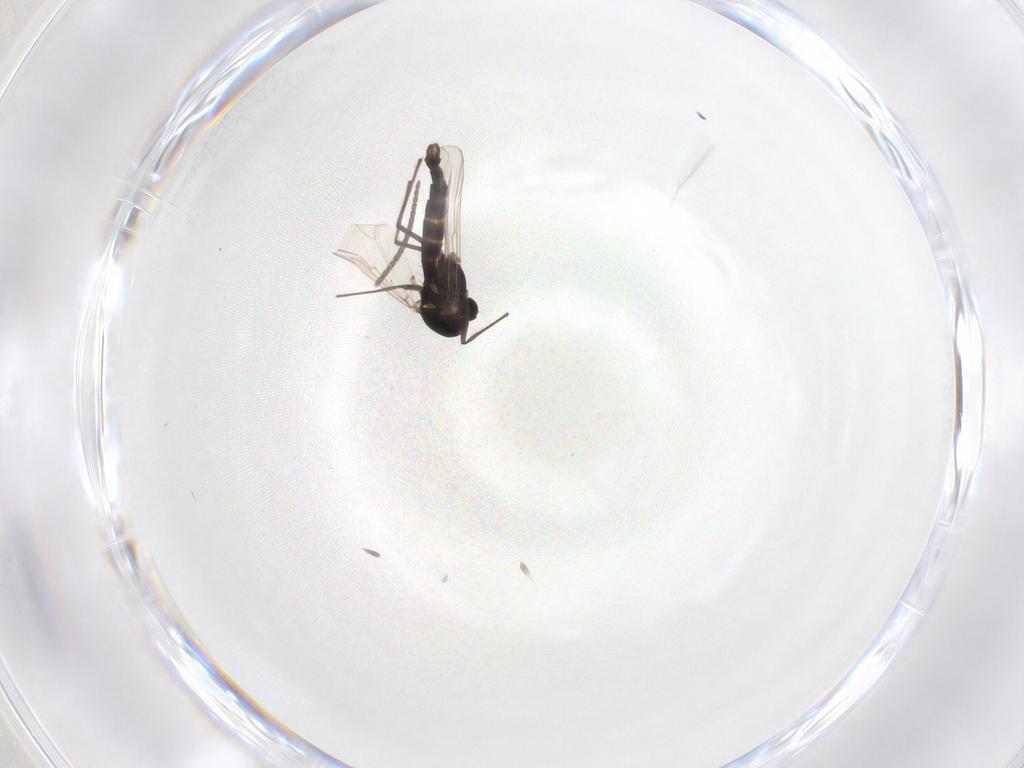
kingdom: Animalia
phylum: Arthropoda
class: Insecta
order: Diptera
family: Chironomidae
